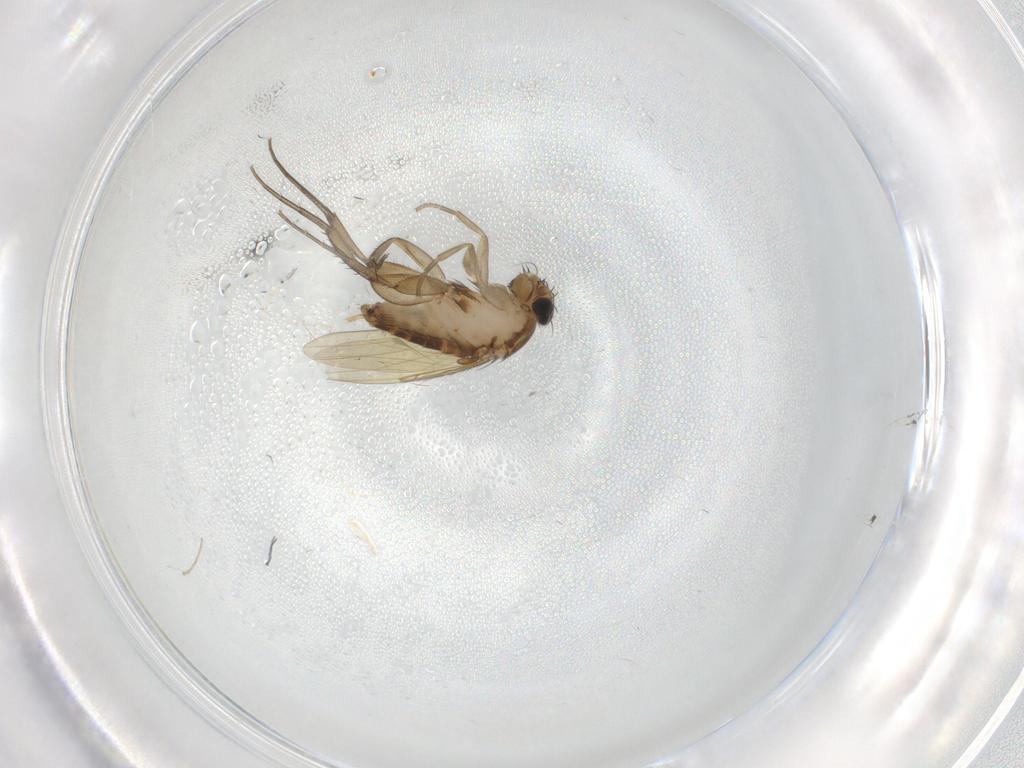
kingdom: Animalia
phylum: Arthropoda
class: Insecta
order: Diptera
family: Phoridae
